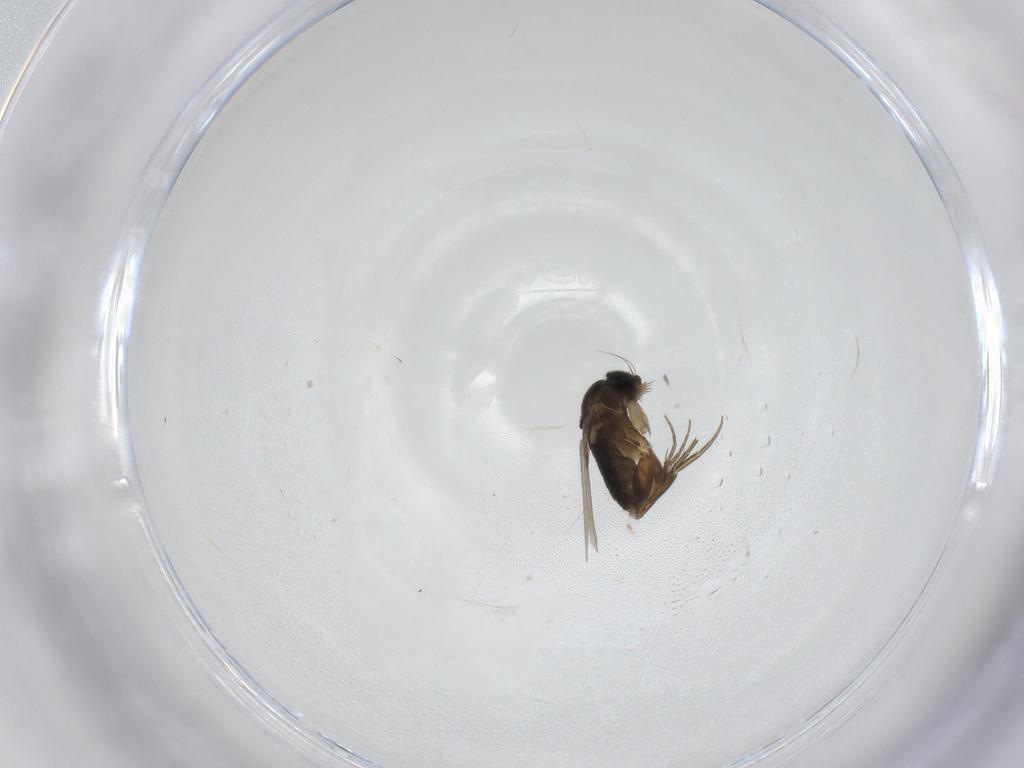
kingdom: Animalia
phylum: Arthropoda
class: Insecta
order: Diptera
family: Phoridae
